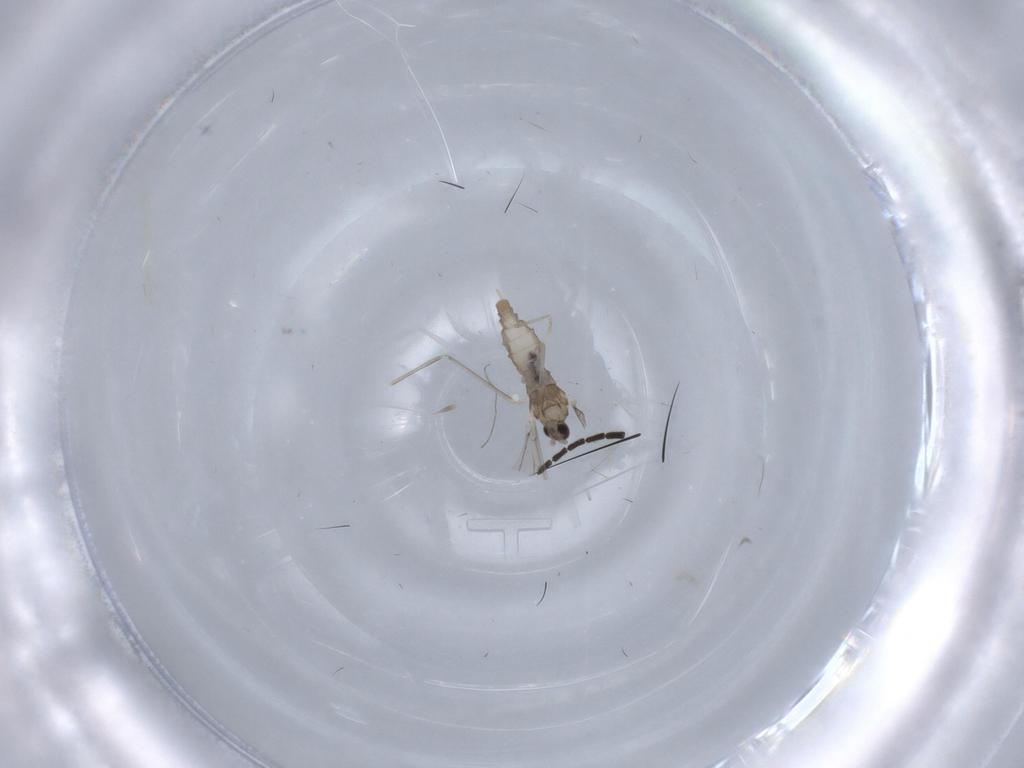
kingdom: Animalia
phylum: Arthropoda
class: Insecta
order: Diptera
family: Cecidomyiidae
